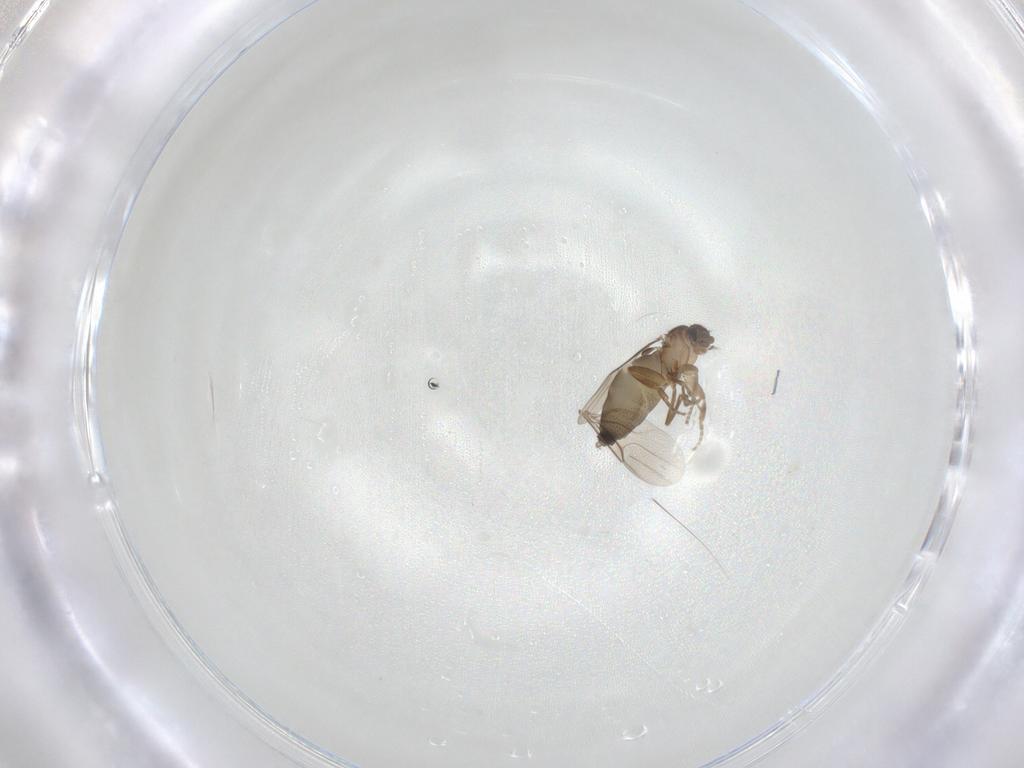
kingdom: Animalia
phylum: Arthropoda
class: Insecta
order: Diptera
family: Phoridae
